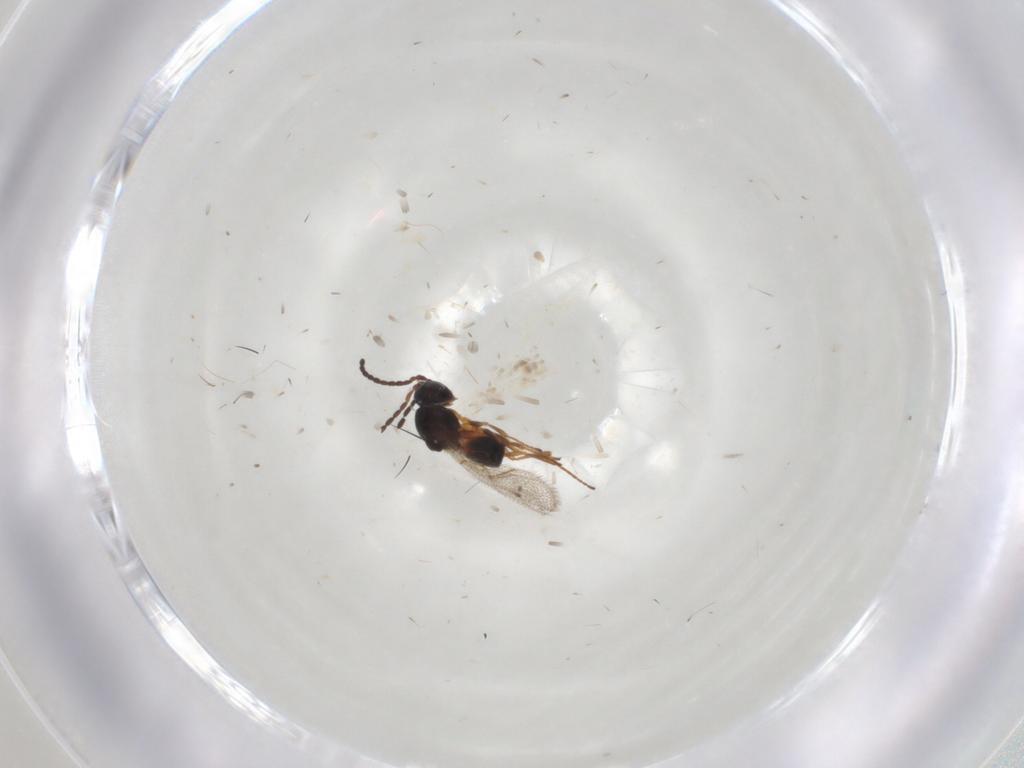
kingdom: Animalia
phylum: Arthropoda
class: Insecta
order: Hymenoptera
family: Figitidae
